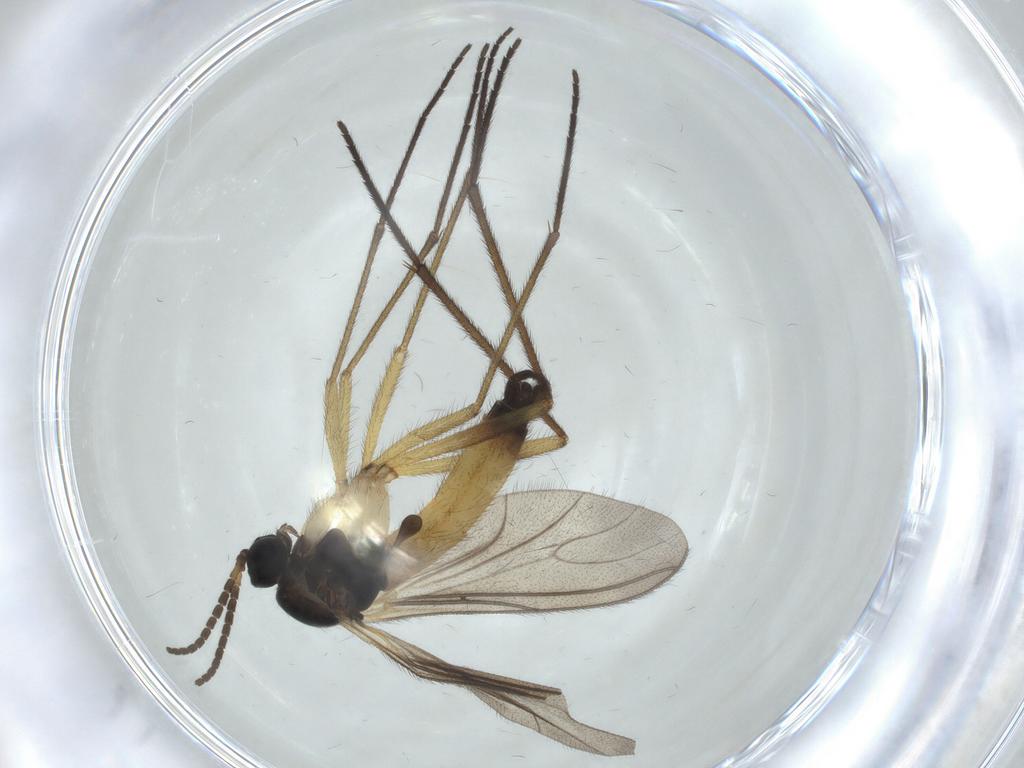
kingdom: Animalia
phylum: Arthropoda
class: Insecta
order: Diptera
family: Sciaridae
